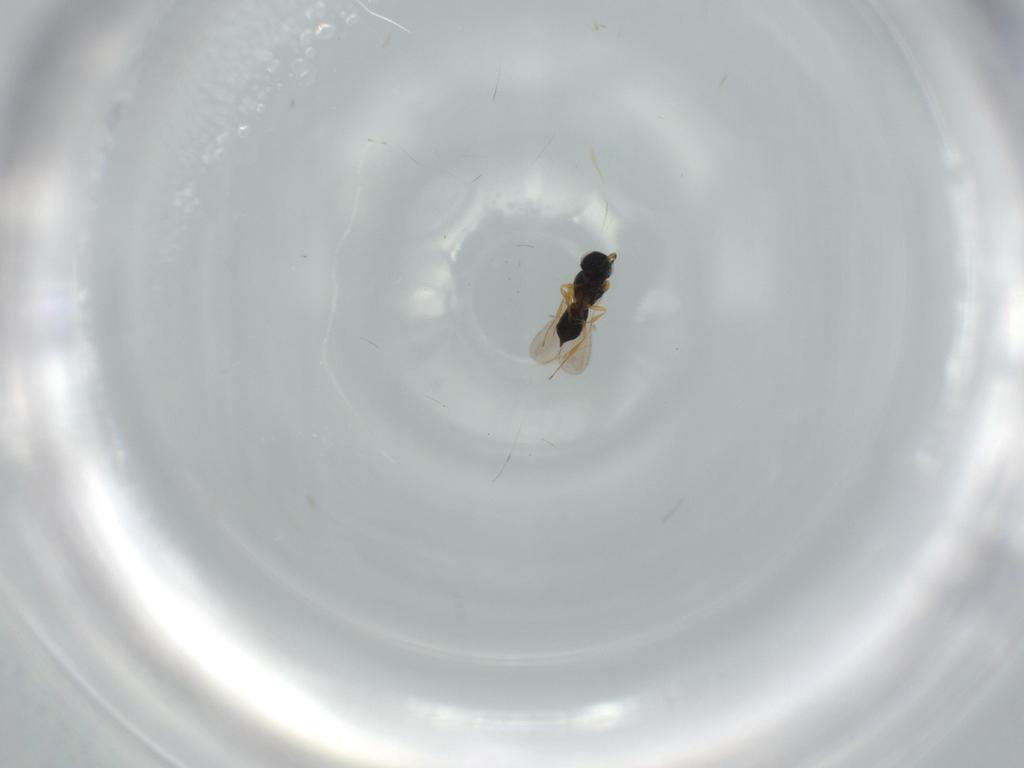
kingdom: Animalia
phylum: Arthropoda
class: Insecta
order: Hymenoptera
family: Scelionidae
